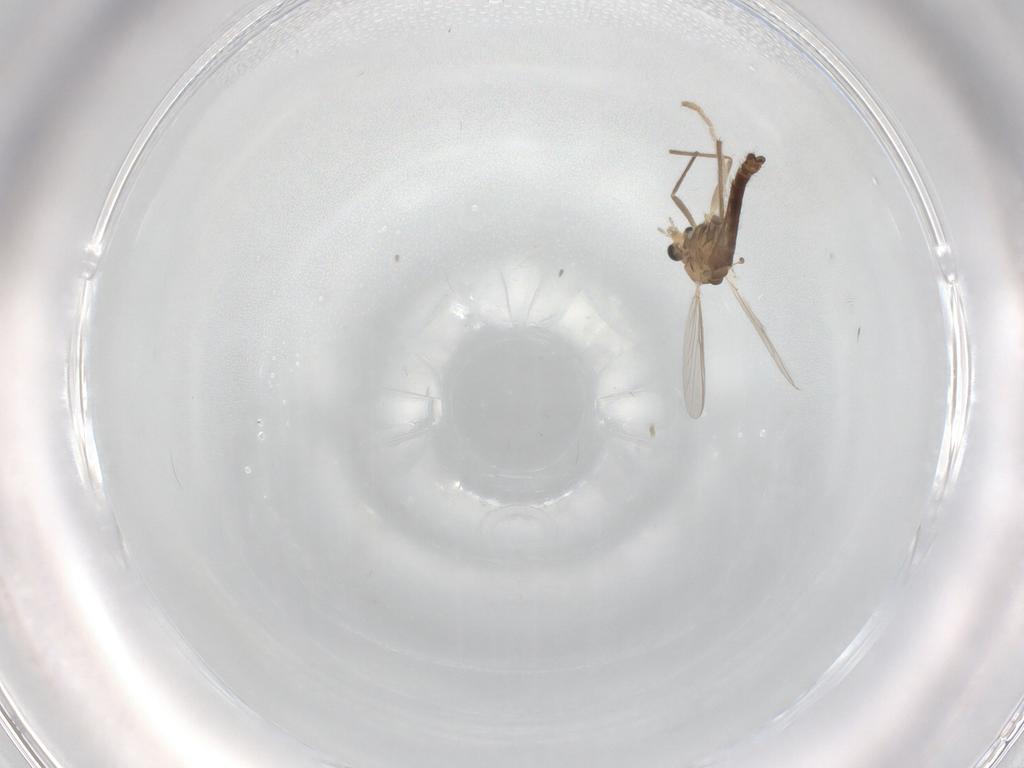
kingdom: Animalia
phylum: Arthropoda
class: Insecta
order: Diptera
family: Chironomidae
